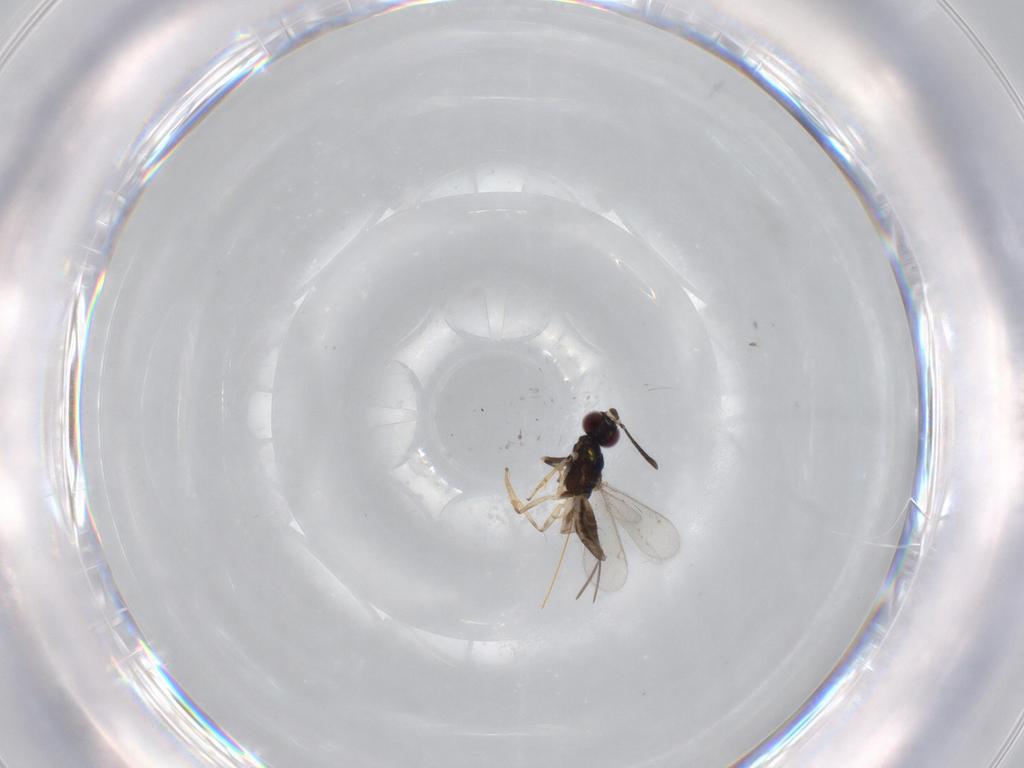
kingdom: Animalia
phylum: Arthropoda
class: Insecta
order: Hymenoptera
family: Eupelmidae
